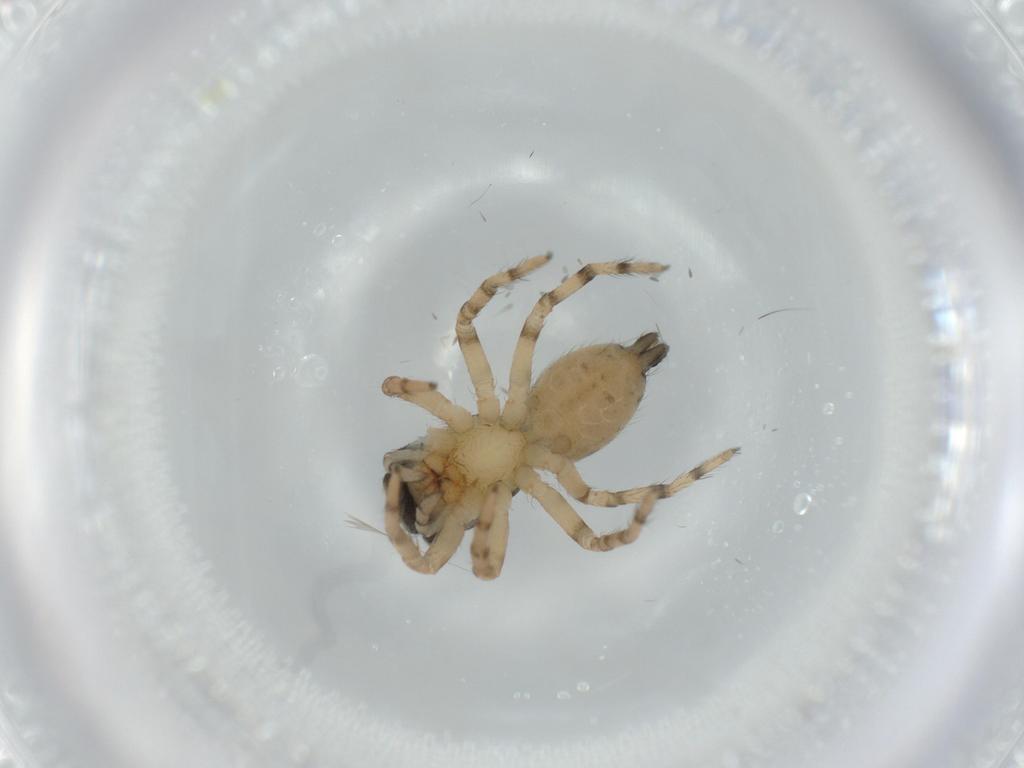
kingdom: Animalia
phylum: Arthropoda
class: Arachnida
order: Araneae
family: Salticidae
